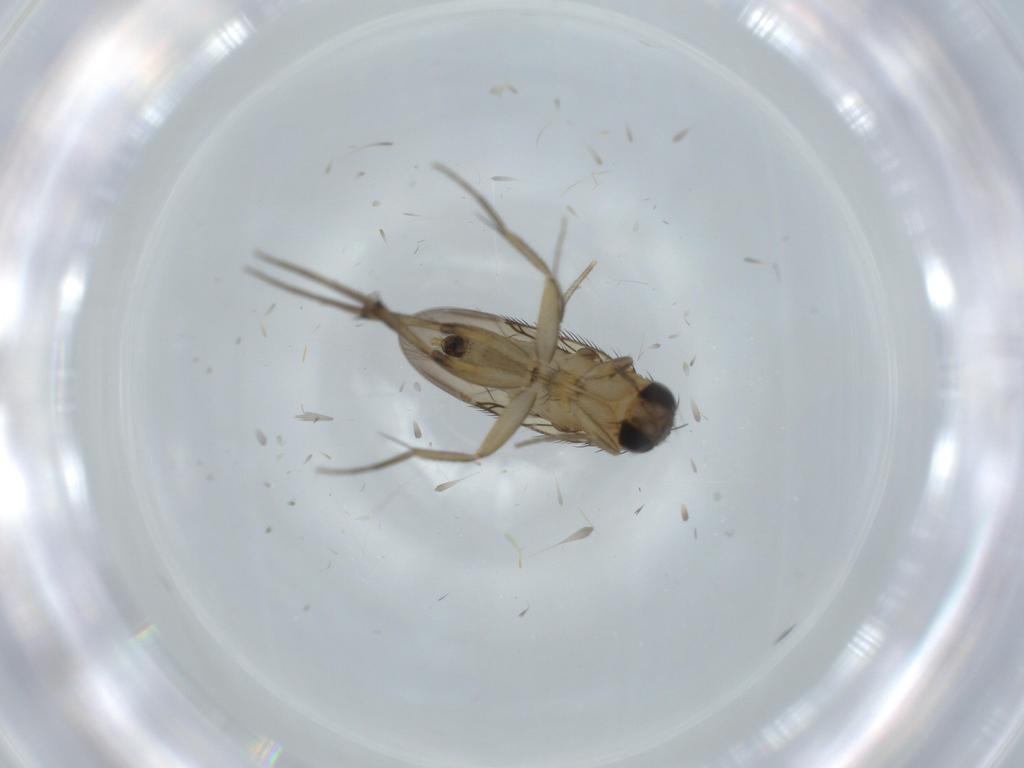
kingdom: Animalia
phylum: Arthropoda
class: Insecta
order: Diptera
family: Phoridae
